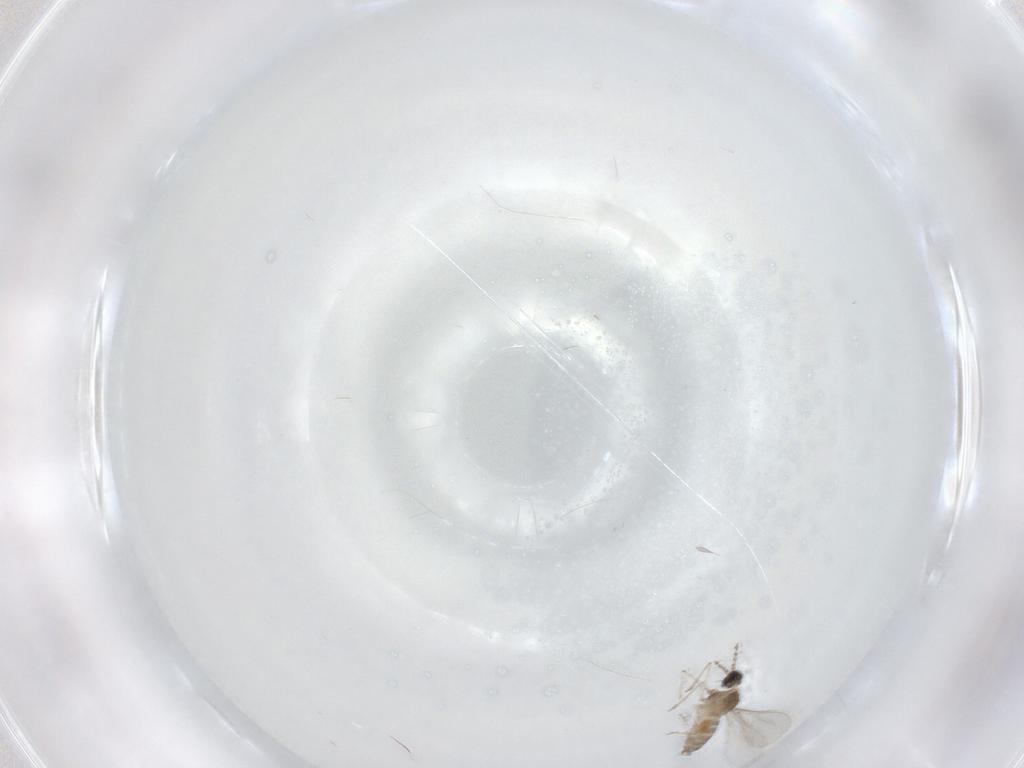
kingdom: Animalia
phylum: Arthropoda
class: Insecta
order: Diptera
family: Cecidomyiidae
